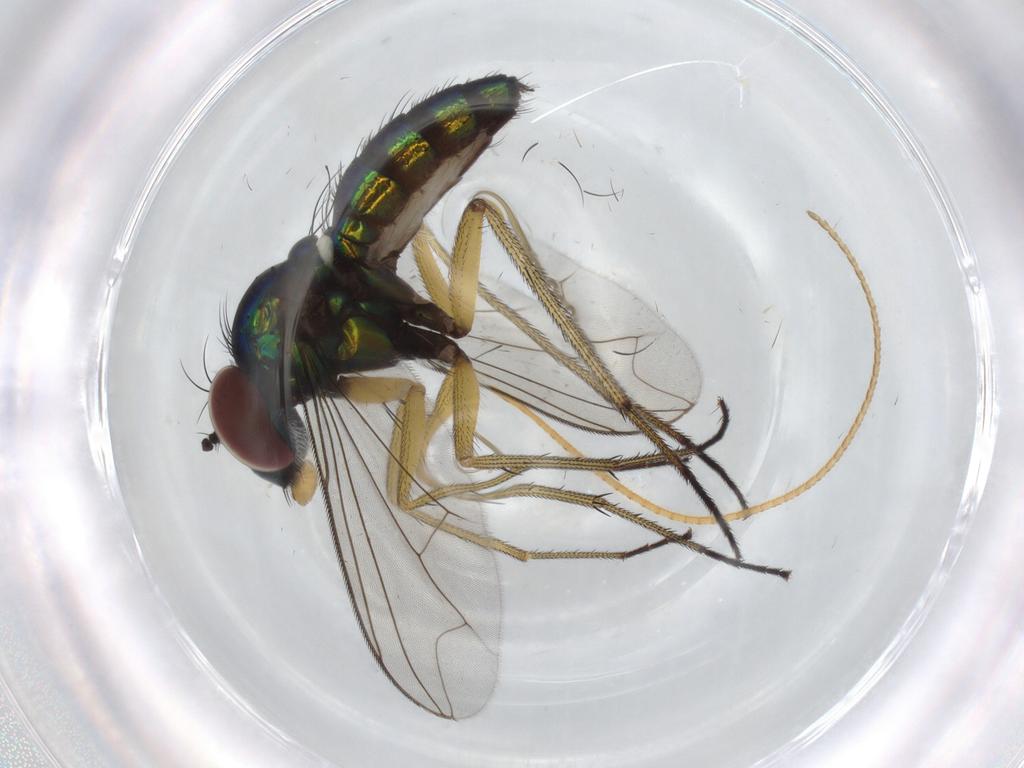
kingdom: Animalia
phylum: Arthropoda
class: Insecta
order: Diptera
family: Dolichopodidae
